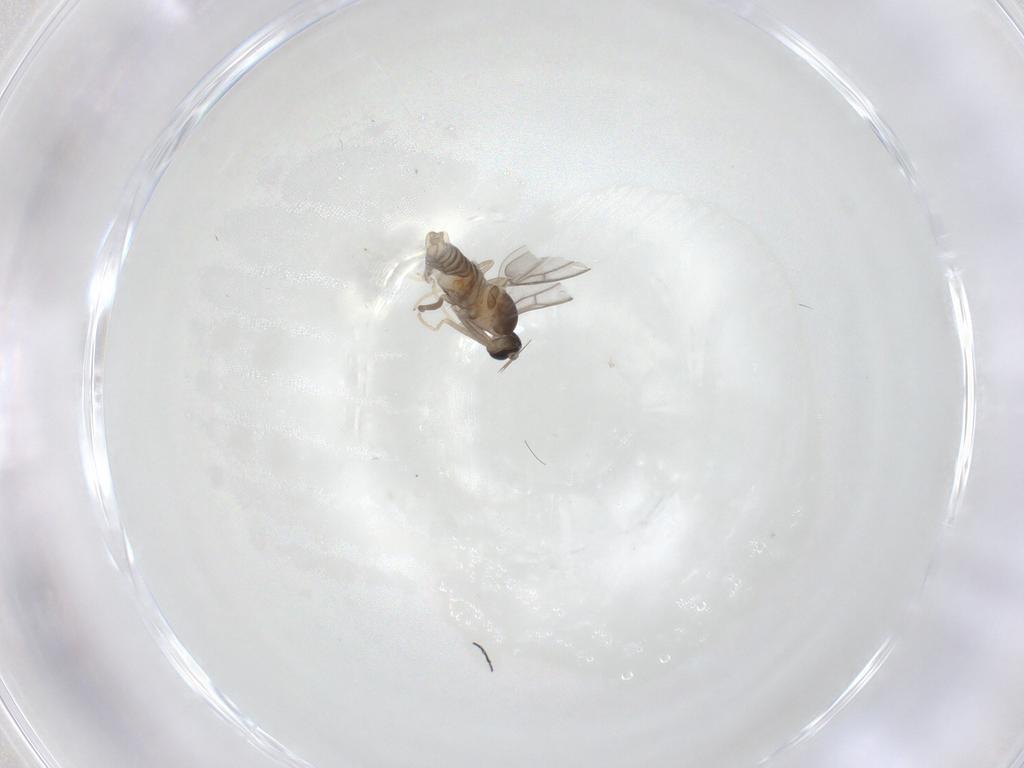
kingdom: Animalia
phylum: Arthropoda
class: Insecta
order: Diptera
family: Cecidomyiidae
